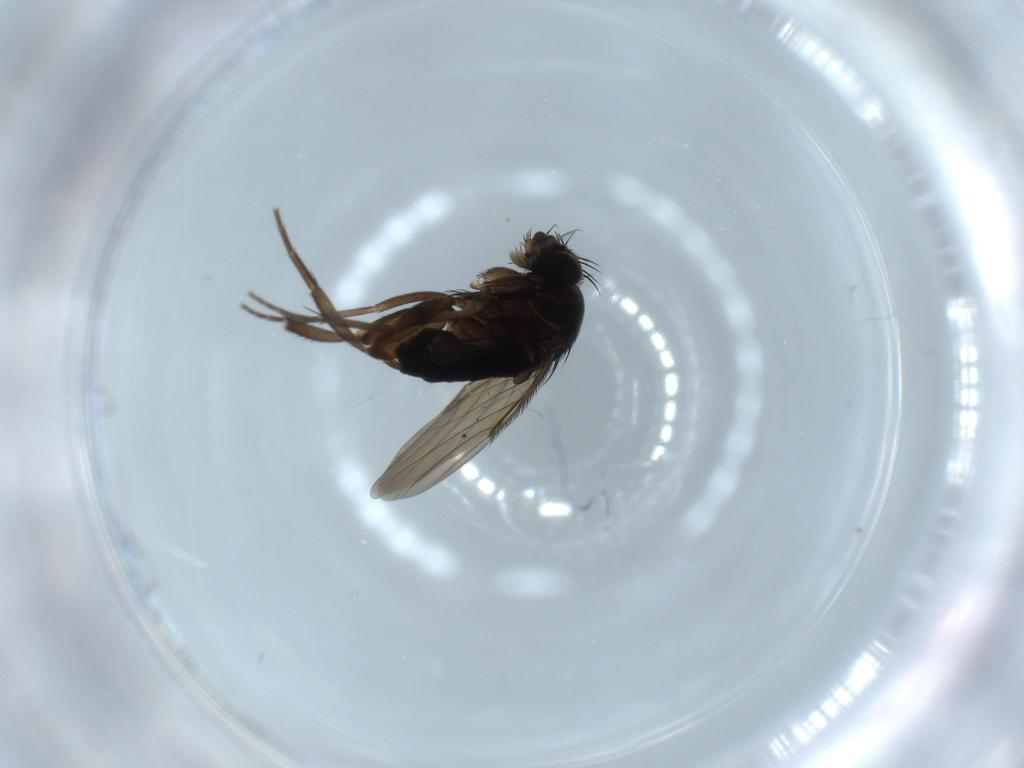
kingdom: Animalia
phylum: Arthropoda
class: Insecta
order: Diptera
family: Phoridae
